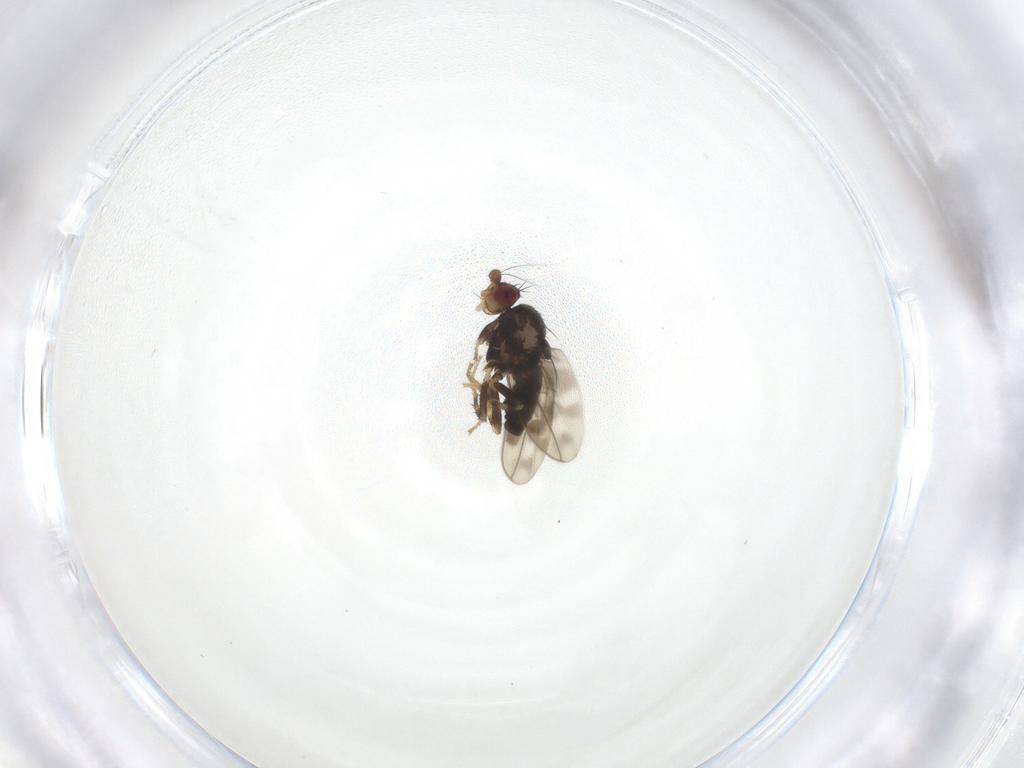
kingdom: Animalia
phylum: Arthropoda
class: Insecta
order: Diptera
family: Sphaeroceridae
